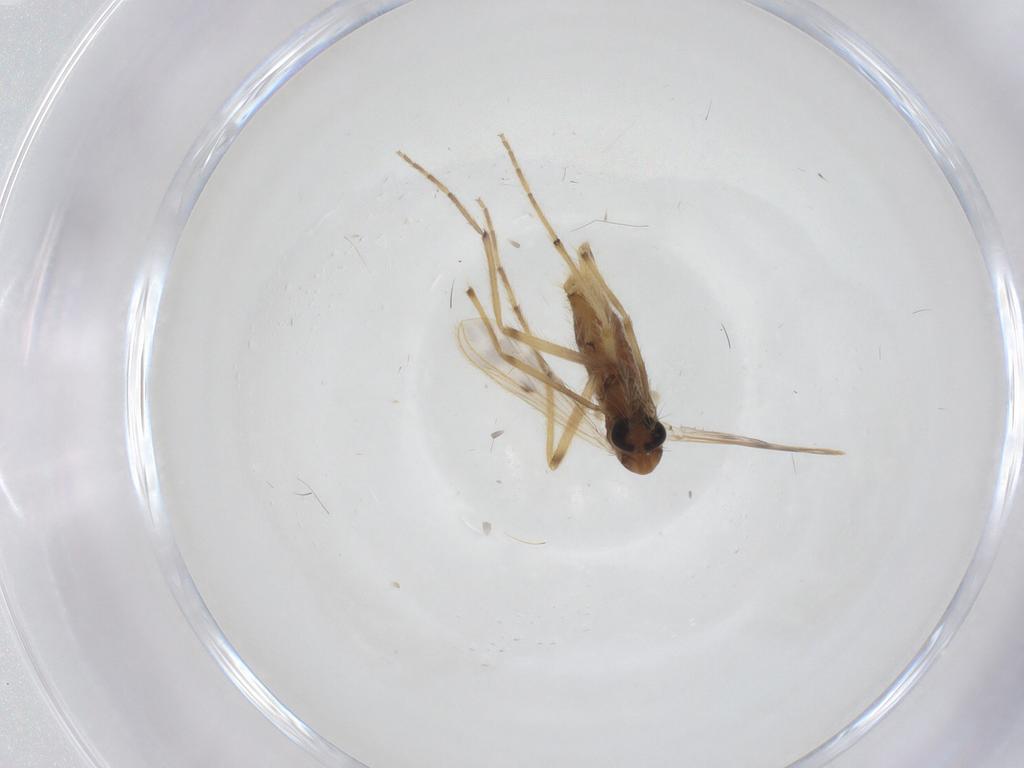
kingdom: Animalia
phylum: Arthropoda
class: Insecta
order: Diptera
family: Chironomidae
